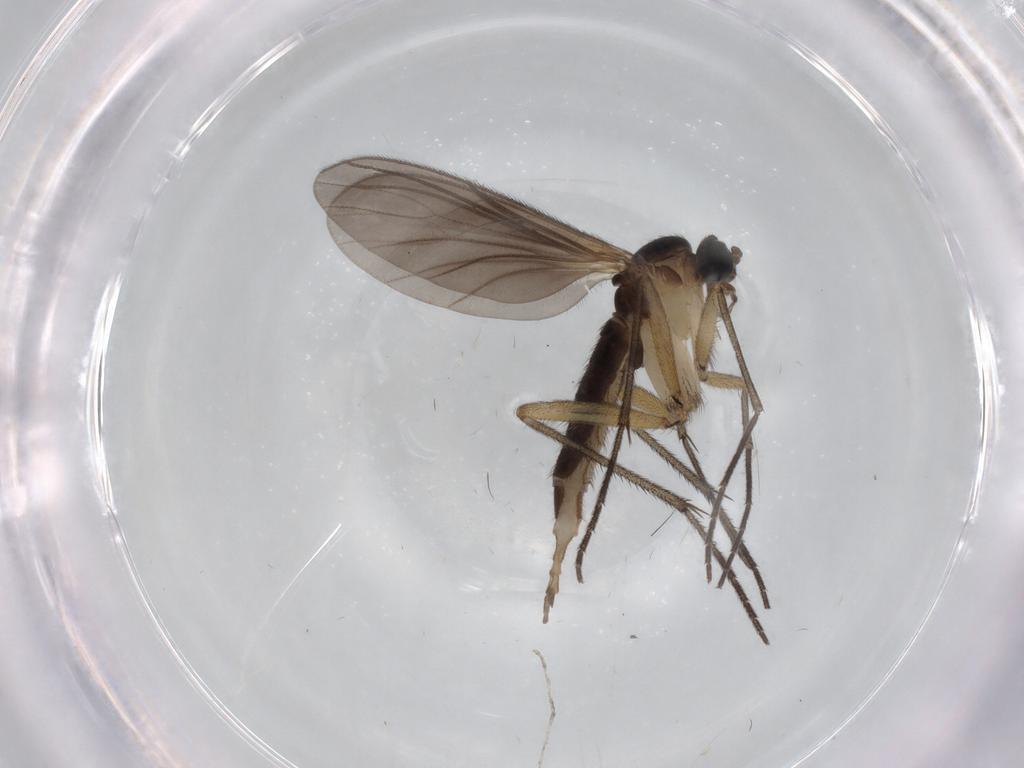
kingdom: Animalia
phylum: Arthropoda
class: Insecta
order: Diptera
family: Sciaridae
